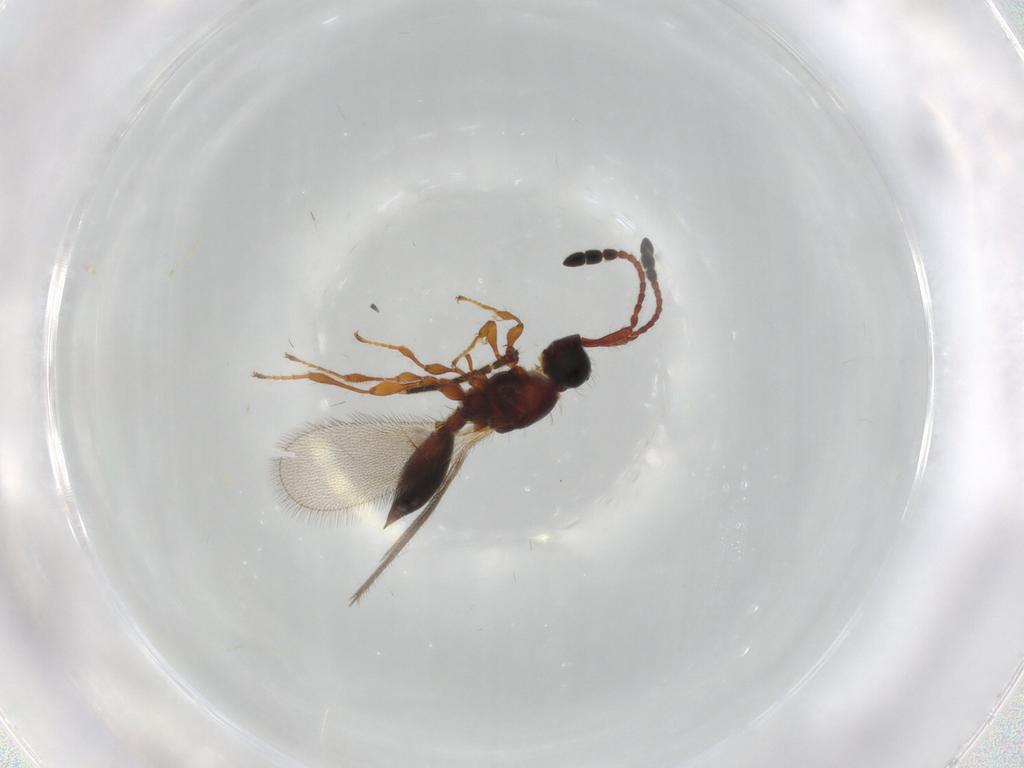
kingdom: Animalia
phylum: Arthropoda
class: Insecta
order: Hymenoptera
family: Diapriidae
